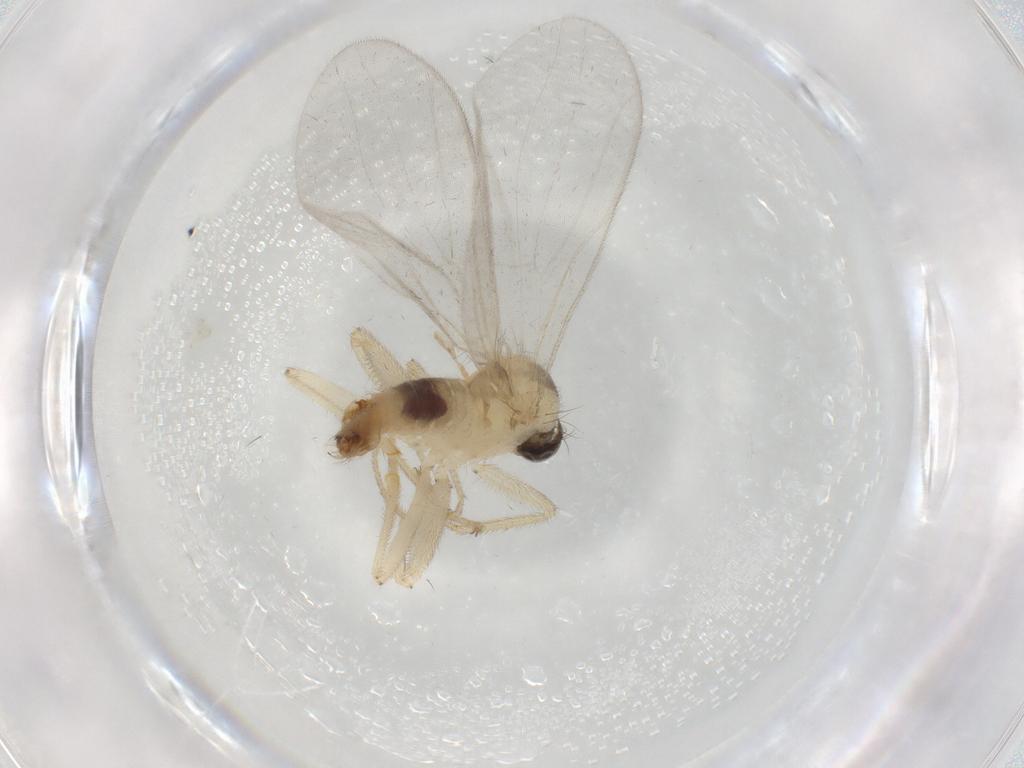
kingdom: Animalia
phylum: Arthropoda
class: Insecta
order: Diptera
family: Hybotidae
